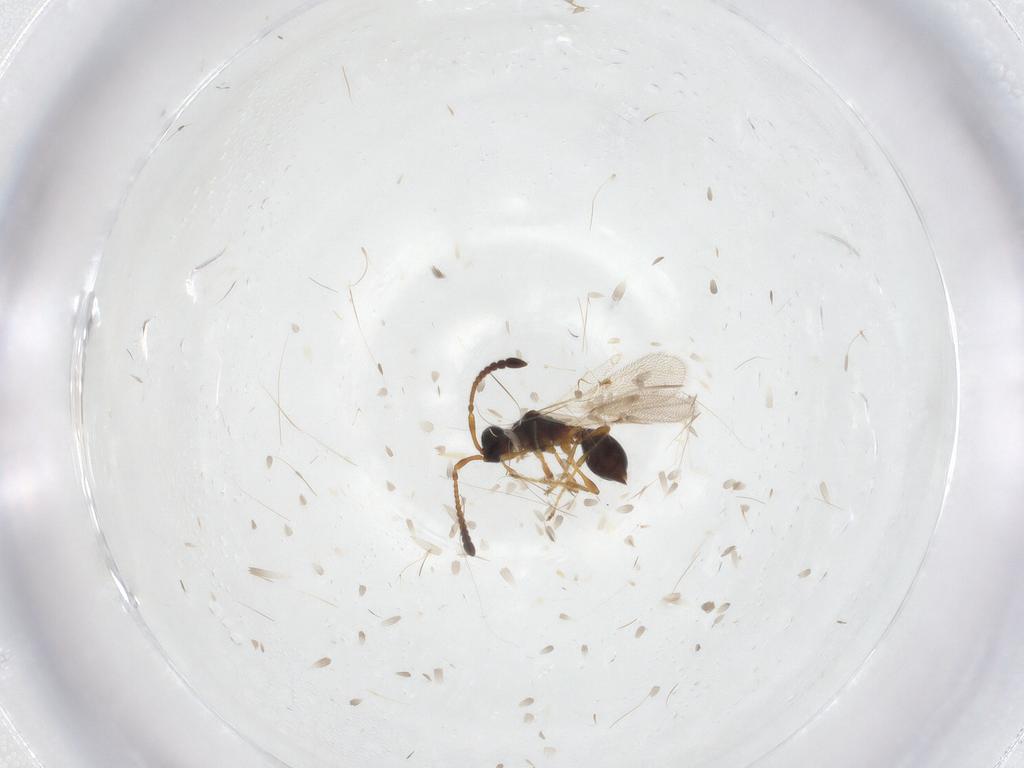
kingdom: Animalia
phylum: Arthropoda
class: Insecta
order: Hymenoptera
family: Diapriidae
